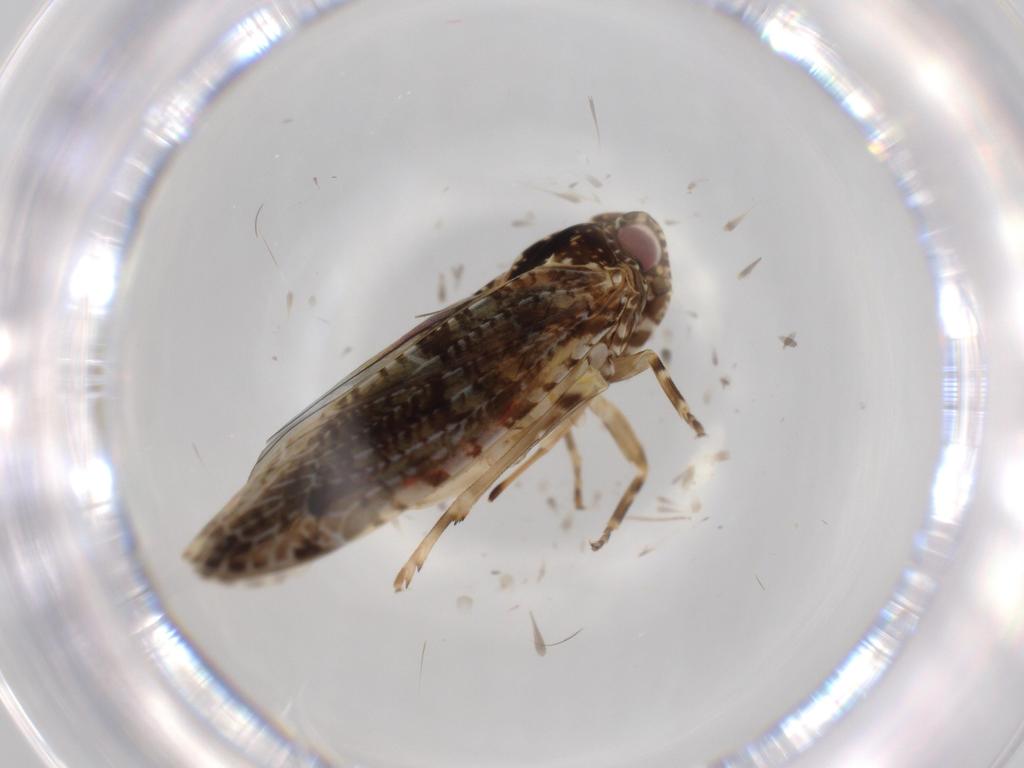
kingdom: Animalia
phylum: Arthropoda
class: Insecta
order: Hemiptera
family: Achilidae
